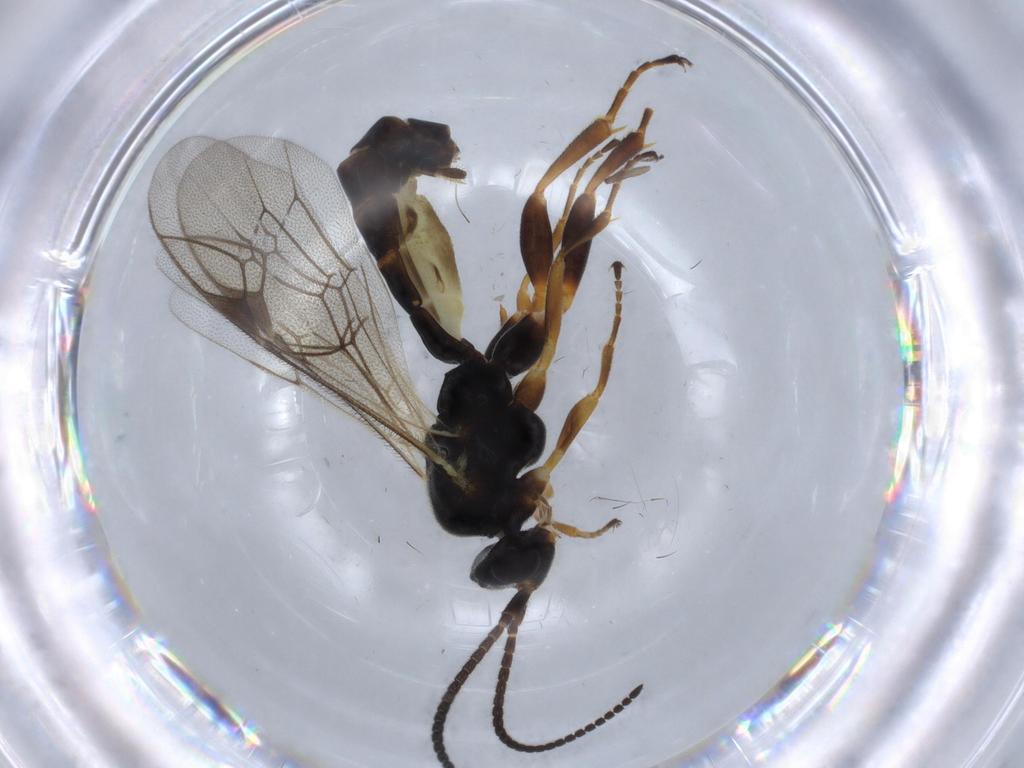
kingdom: Animalia
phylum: Arthropoda
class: Insecta
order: Hymenoptera
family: Ichneumonidae
